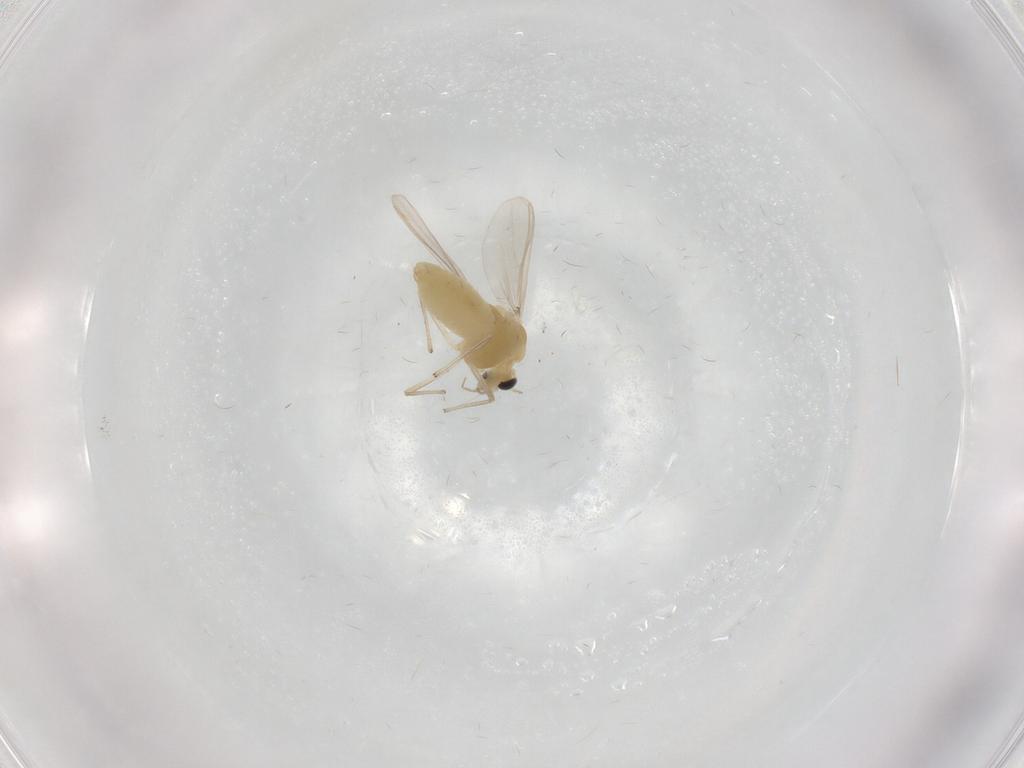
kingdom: Animalia
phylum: Arthropoda
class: Insecta
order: Diptera
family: Chironomidae
